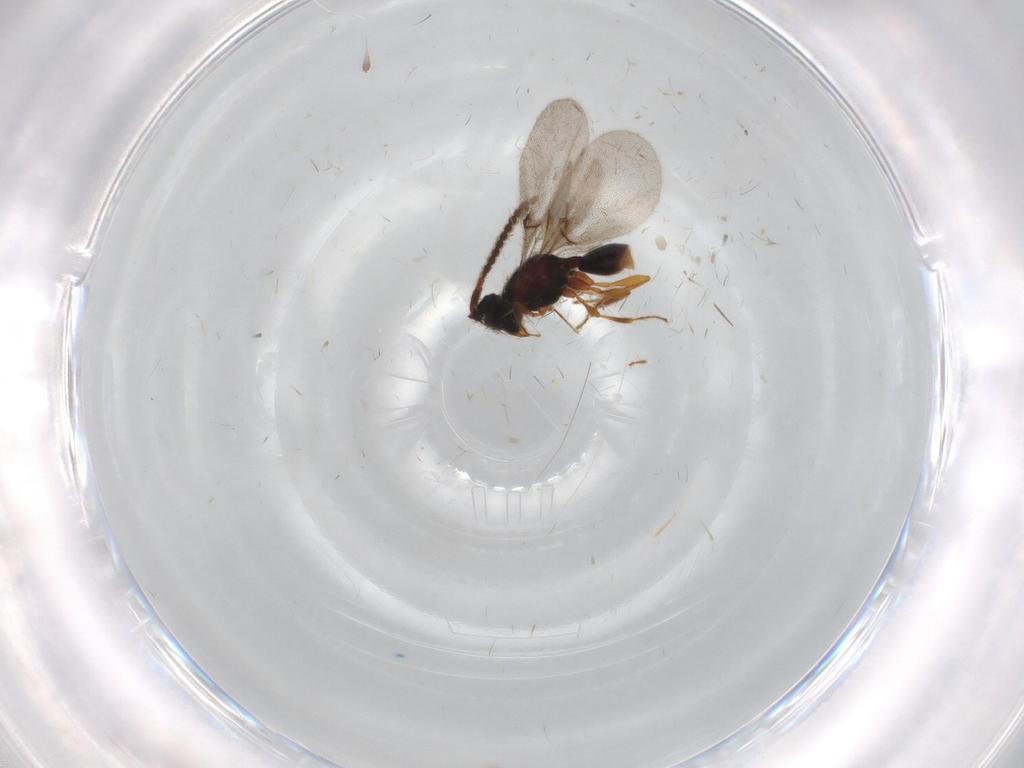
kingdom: Animalia
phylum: Arthropoda
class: Insecta
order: Hymenoptera
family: Diapriidae
